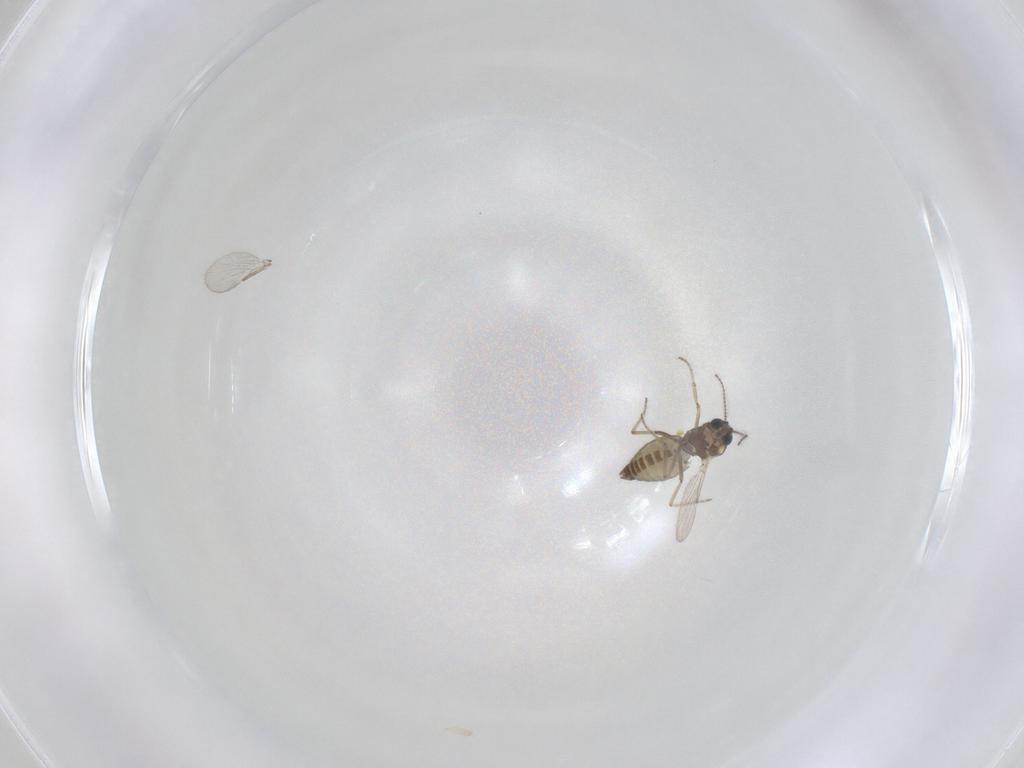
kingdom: Animalia
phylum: Arthropoda
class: Insecta
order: Diptera
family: Ceratopogonidae
